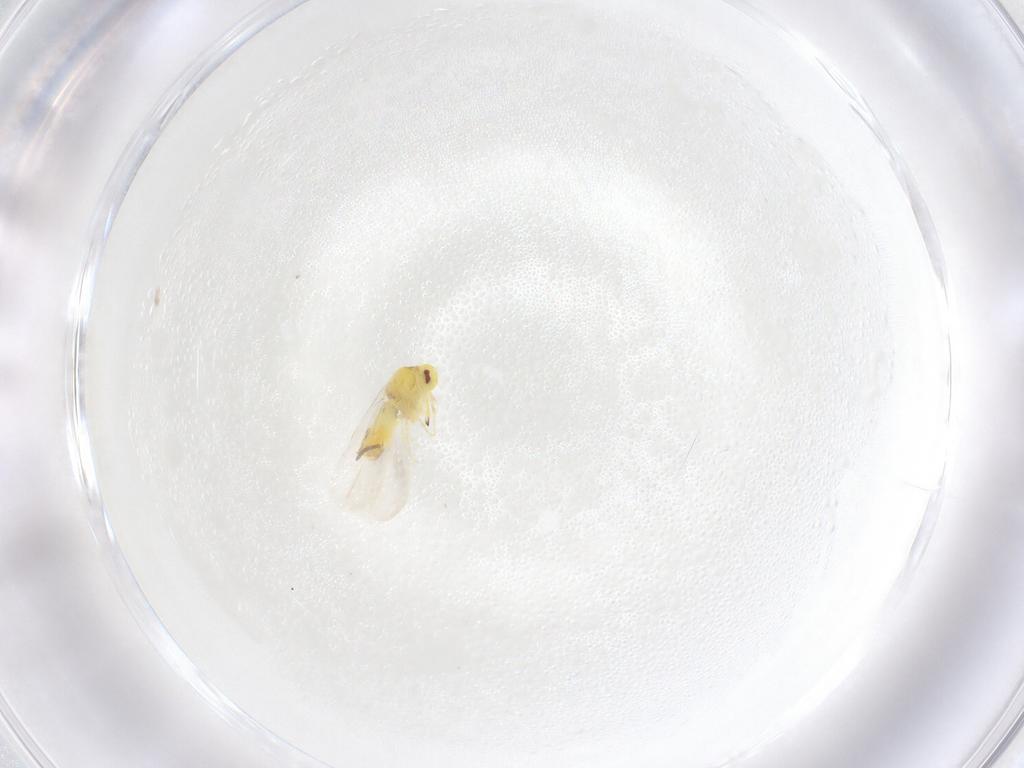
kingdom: Animalia
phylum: Arthropoda
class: Insecta
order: Hemiptera
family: Aleyrodidae
